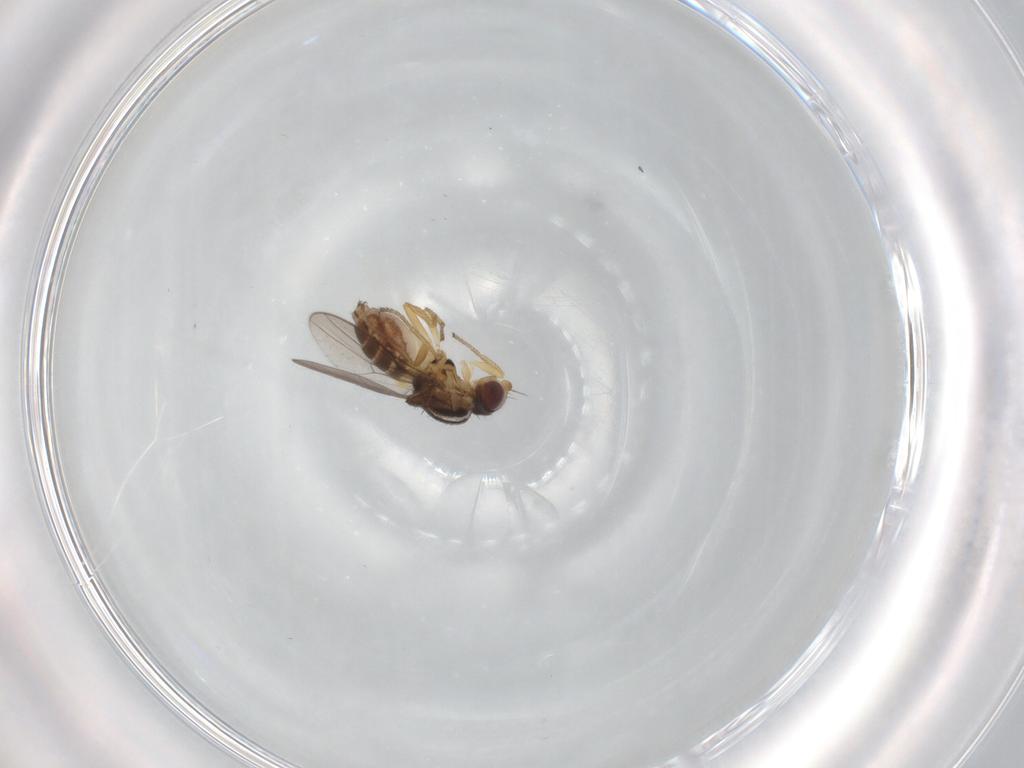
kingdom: Animalia
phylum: Arthropoda
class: Insecta
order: Diptera
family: Chloropidae
